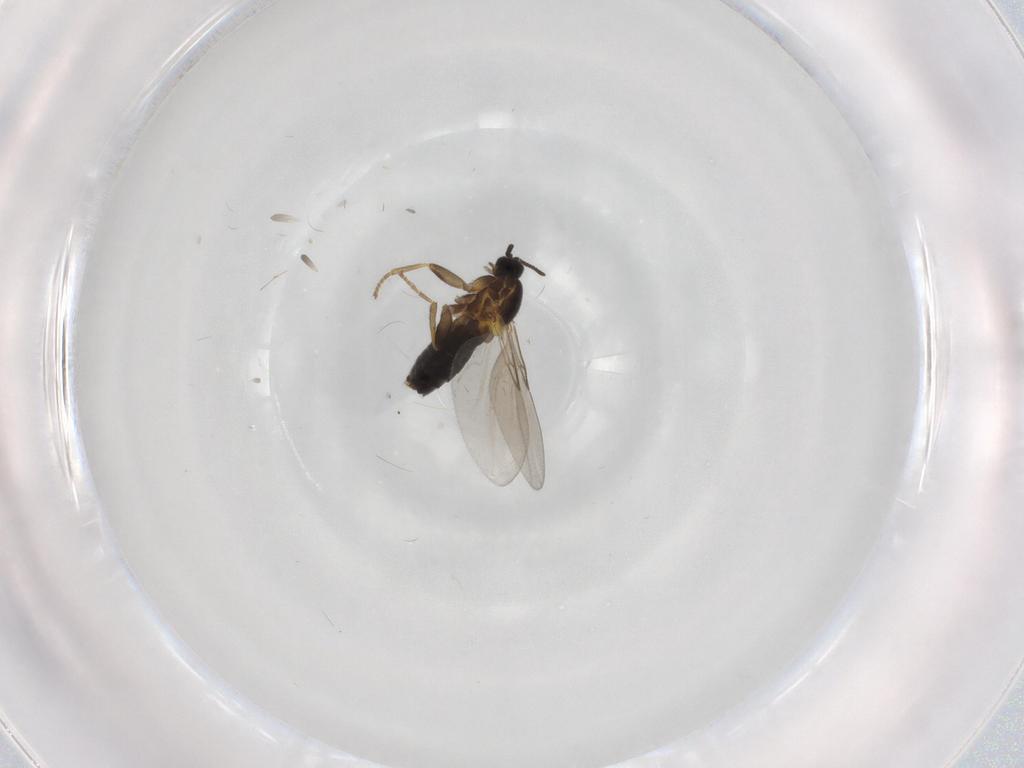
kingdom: Animalia
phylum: Arthropoda
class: Insecta
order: Diptera
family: Scatopsidae
